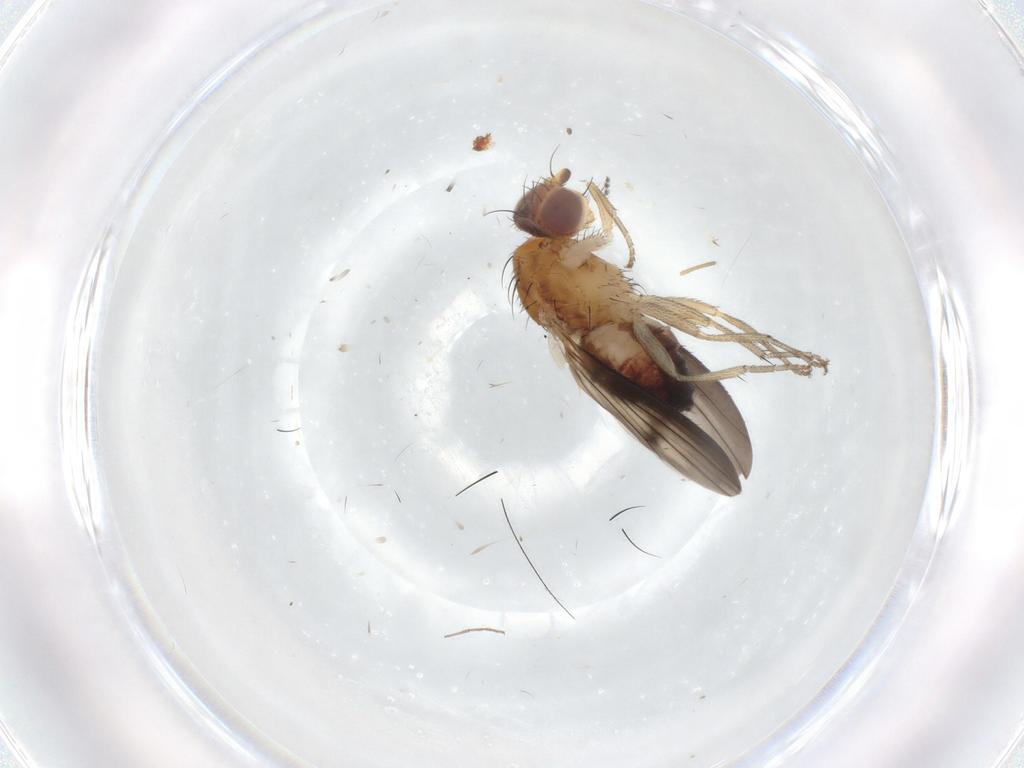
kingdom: Animalia
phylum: Arthropoda
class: Insecta
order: Diptera
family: Heleomyzidae
